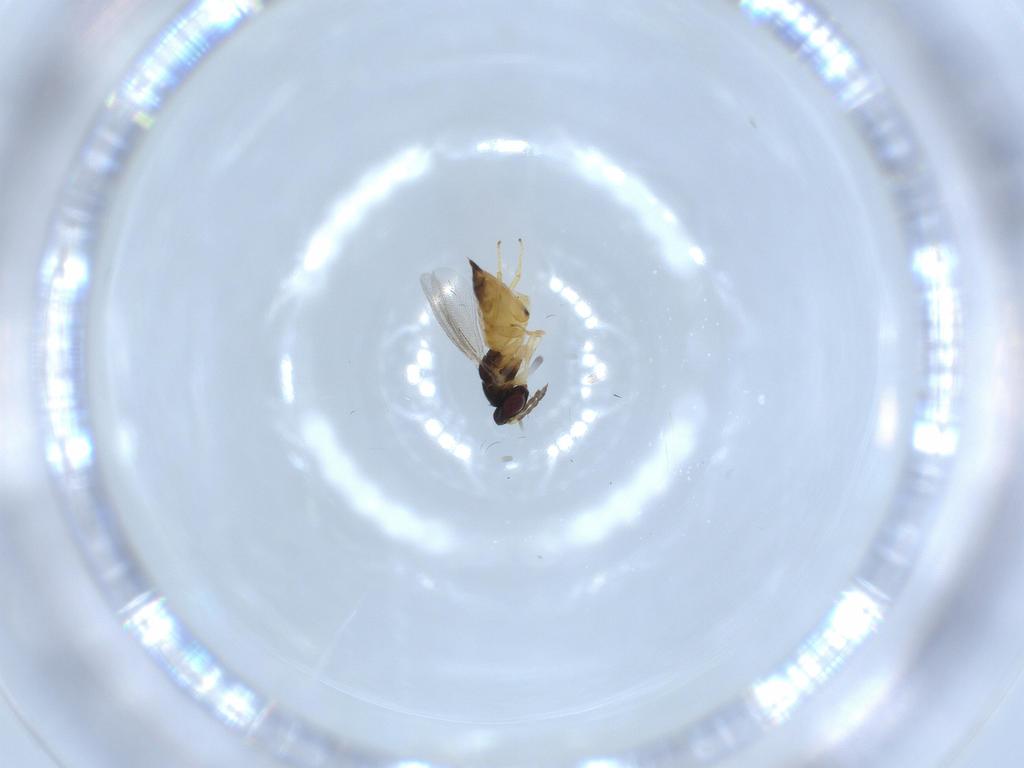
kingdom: Animalia
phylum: Arthropoda
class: Insecta
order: Hymenoptera
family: Eulophidae
